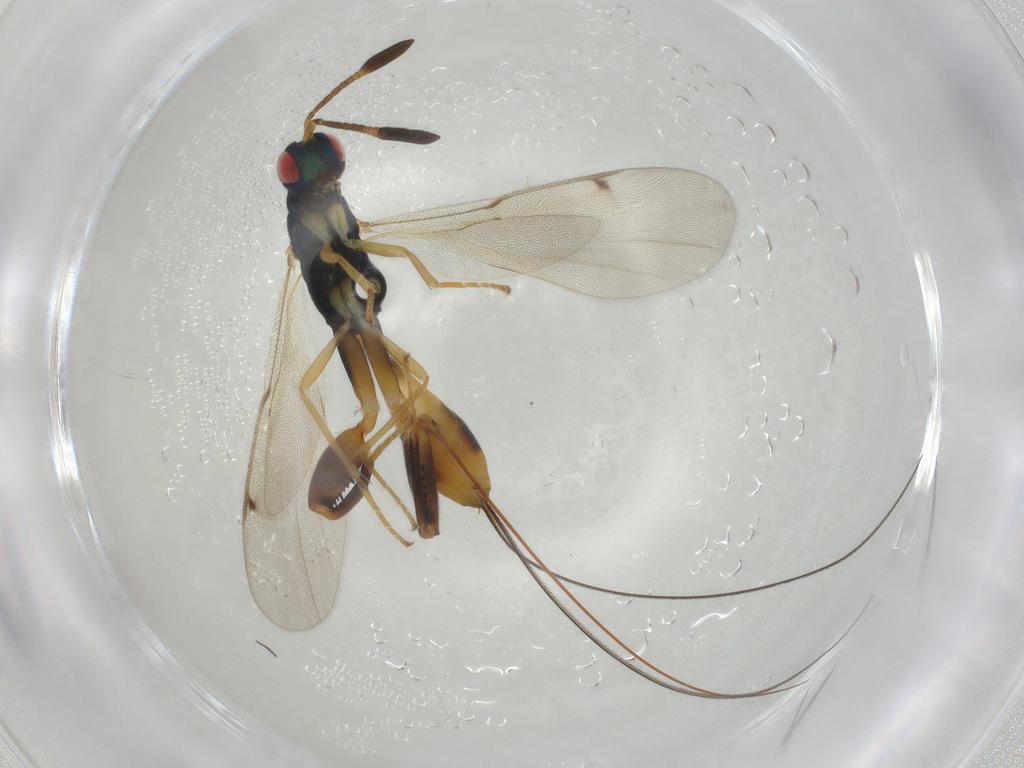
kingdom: Animalia
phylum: Arthropoda
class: Insecta
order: Hymenoptera
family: Torymidae
